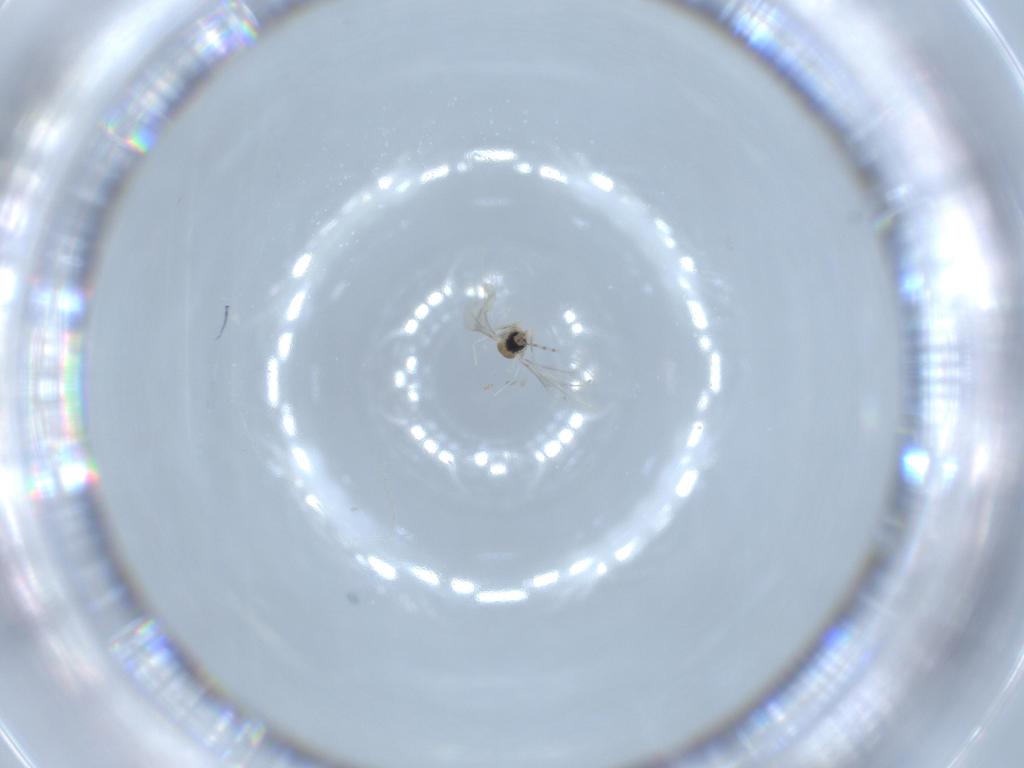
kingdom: Animalia
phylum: Arthropoda
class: Insecta
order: Diptera
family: Cecidomyiidae
